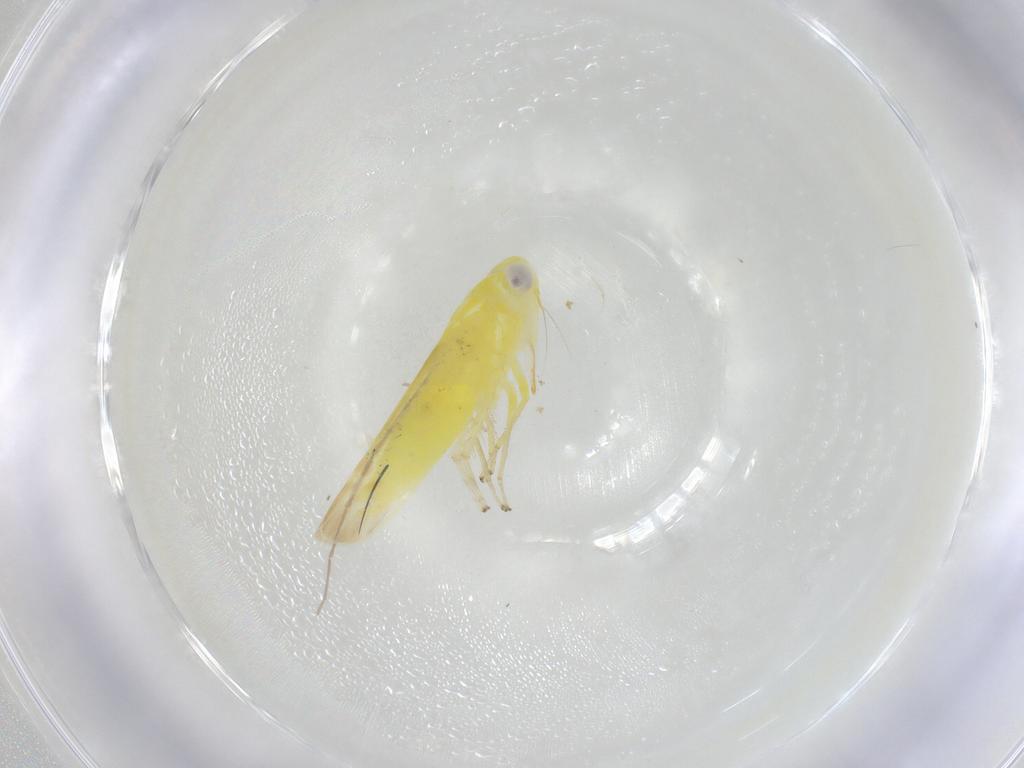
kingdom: Animalia
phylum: Arthropoda
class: Insecta
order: Hemiptera
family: Cicadellidae
